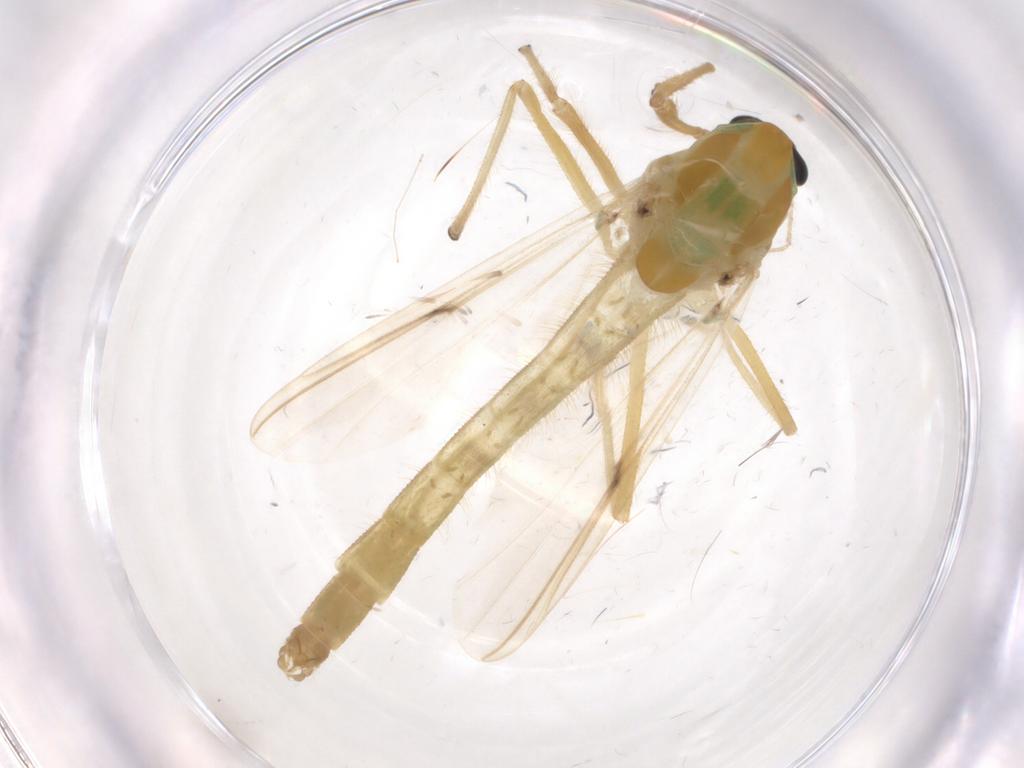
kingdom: Animalia
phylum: Arthropoda
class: Insecta
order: Diptera
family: Chironomidae
